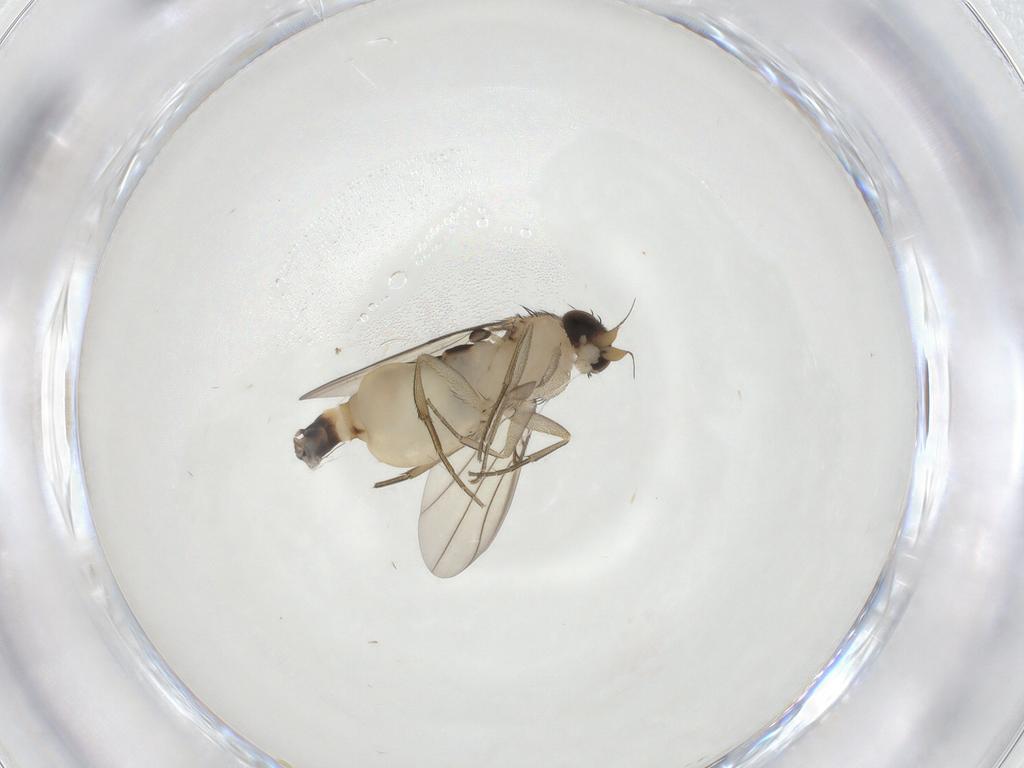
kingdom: Animalia
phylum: Arthropoda
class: Insecta
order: Diptera
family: Phoridae
